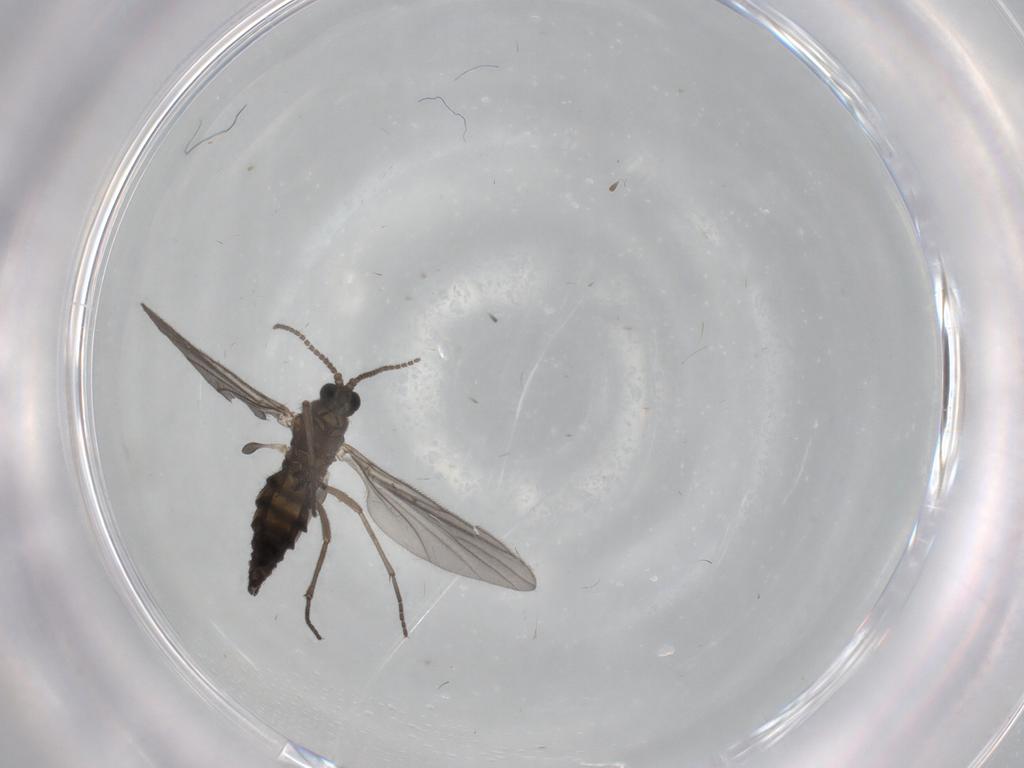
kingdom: Animalia
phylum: Arthropoda
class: Insecta
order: Diptera
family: Sciaridae
